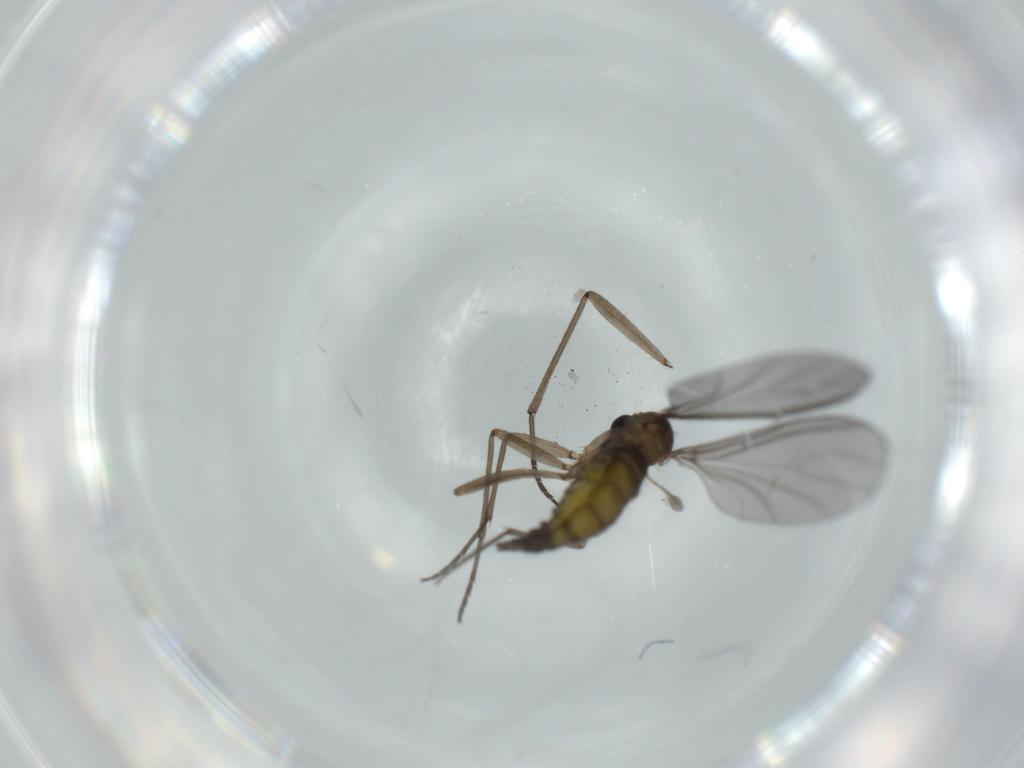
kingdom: Animalia
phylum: Arthropoda
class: Insecta
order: Diptera
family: Sciaridae
